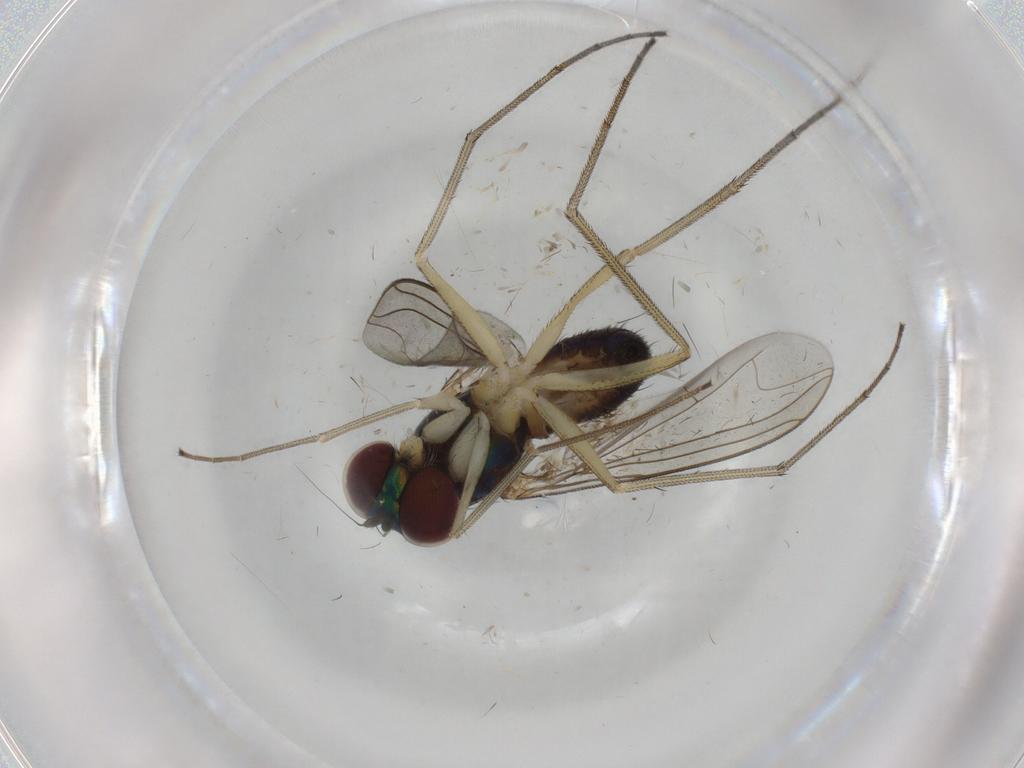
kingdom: Animalia
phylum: Arthropoda
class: Insecta
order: Diptera
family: Dolichopodidae
